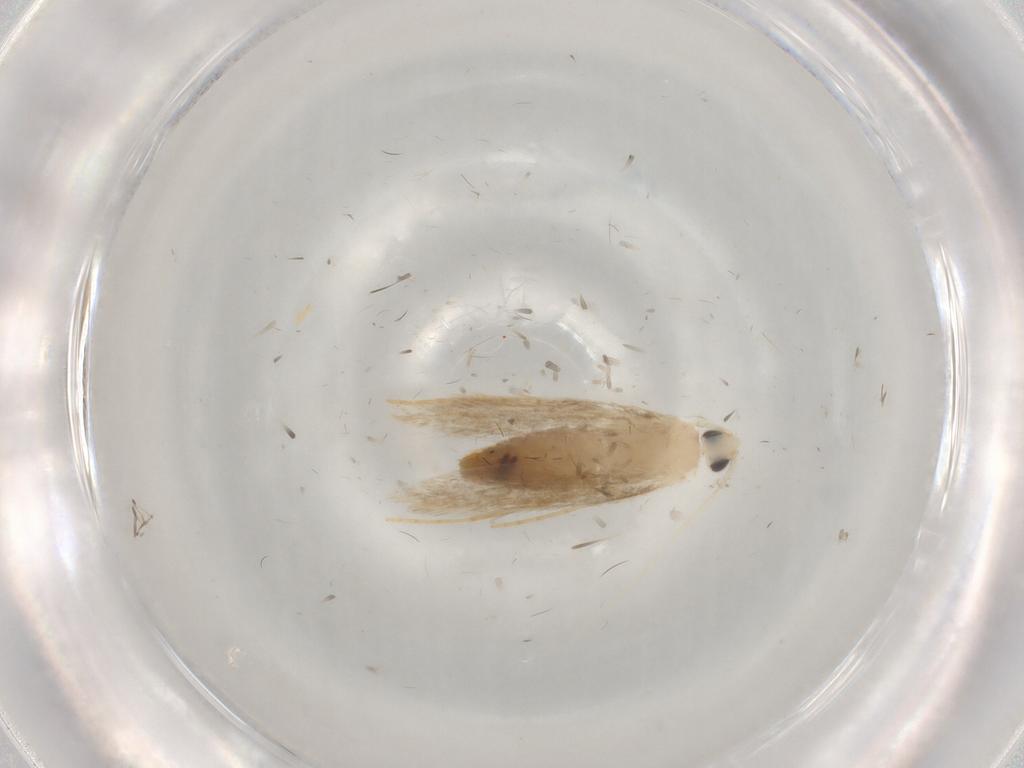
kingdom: Animalia
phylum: Arthropoda
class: Insecta
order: Lepidoptera
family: Tineidae
